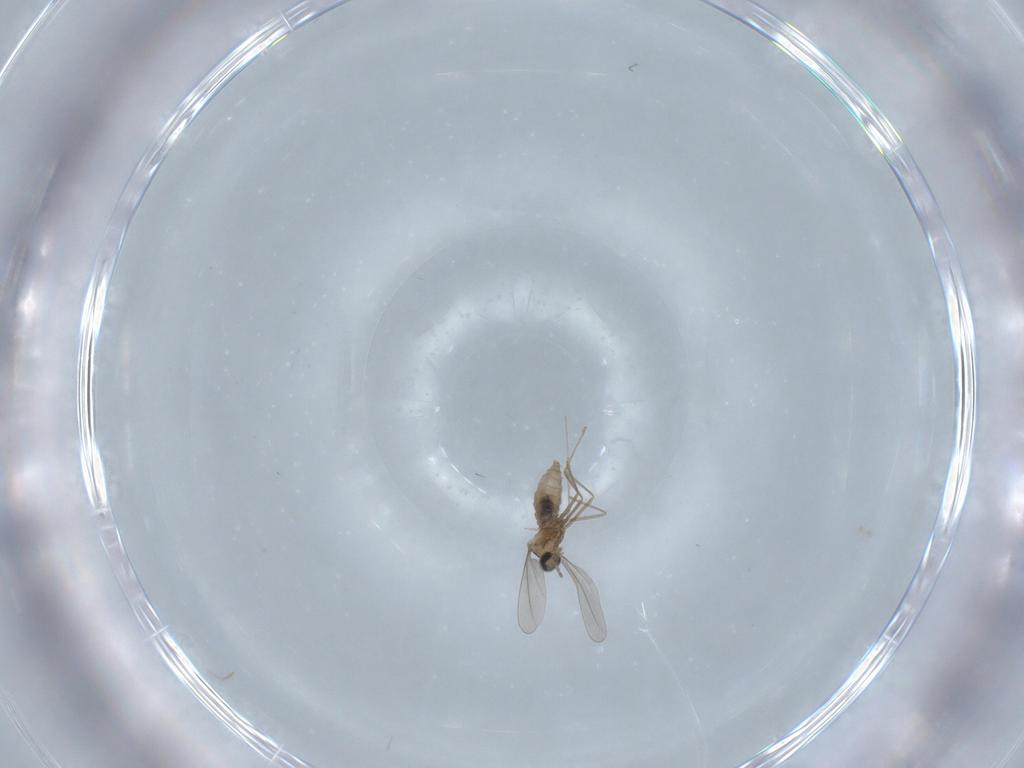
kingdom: Animalia
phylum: Arthropoda
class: Insecta
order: Diptera
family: Cecidomyiidae
